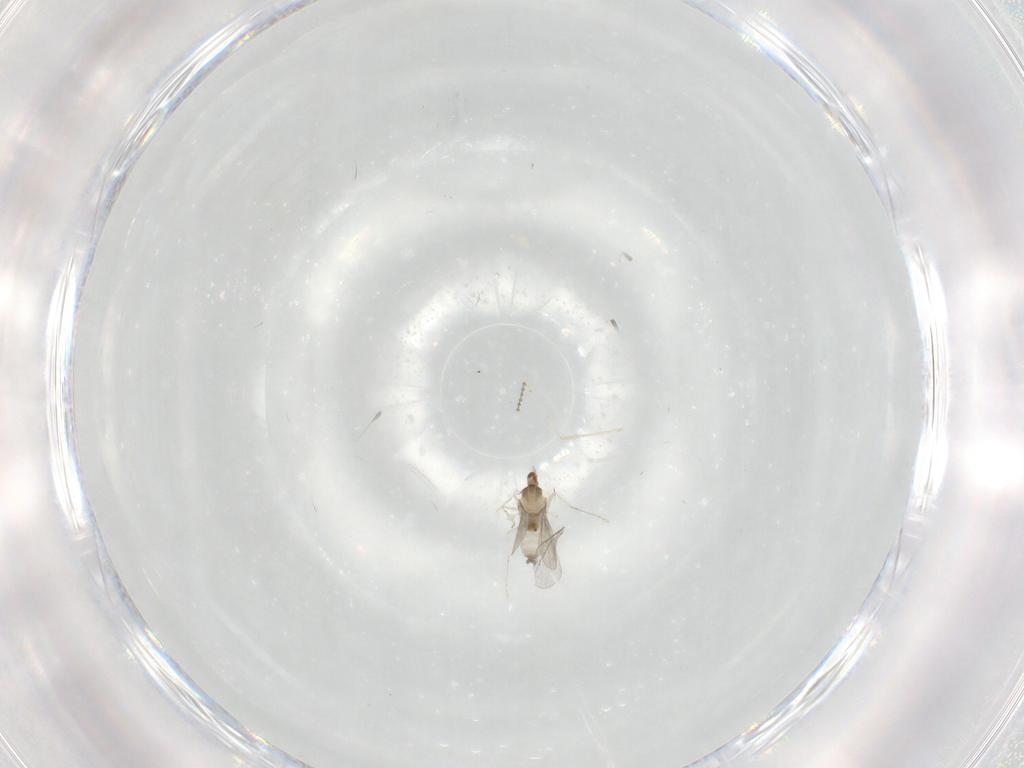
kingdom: Animalia
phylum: Arthropoda
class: Insecta
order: Diptera
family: Cecidomyiidae
